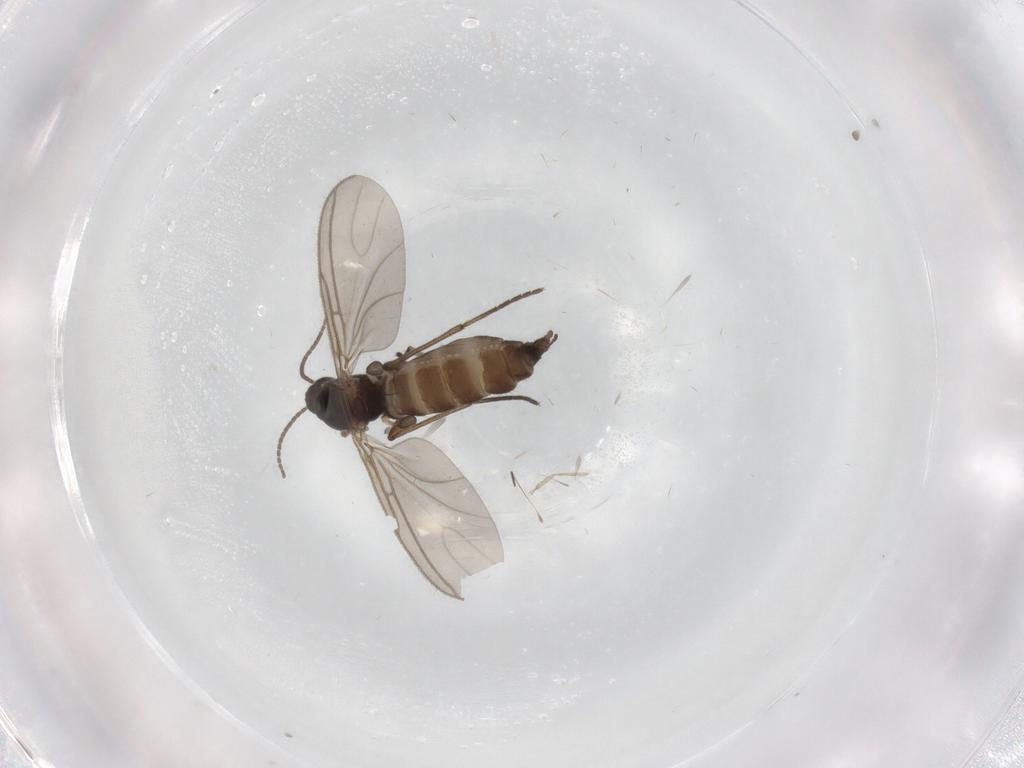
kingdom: Animalia
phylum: Arthropoda
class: Insecta
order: Diptera
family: Sciaridae
